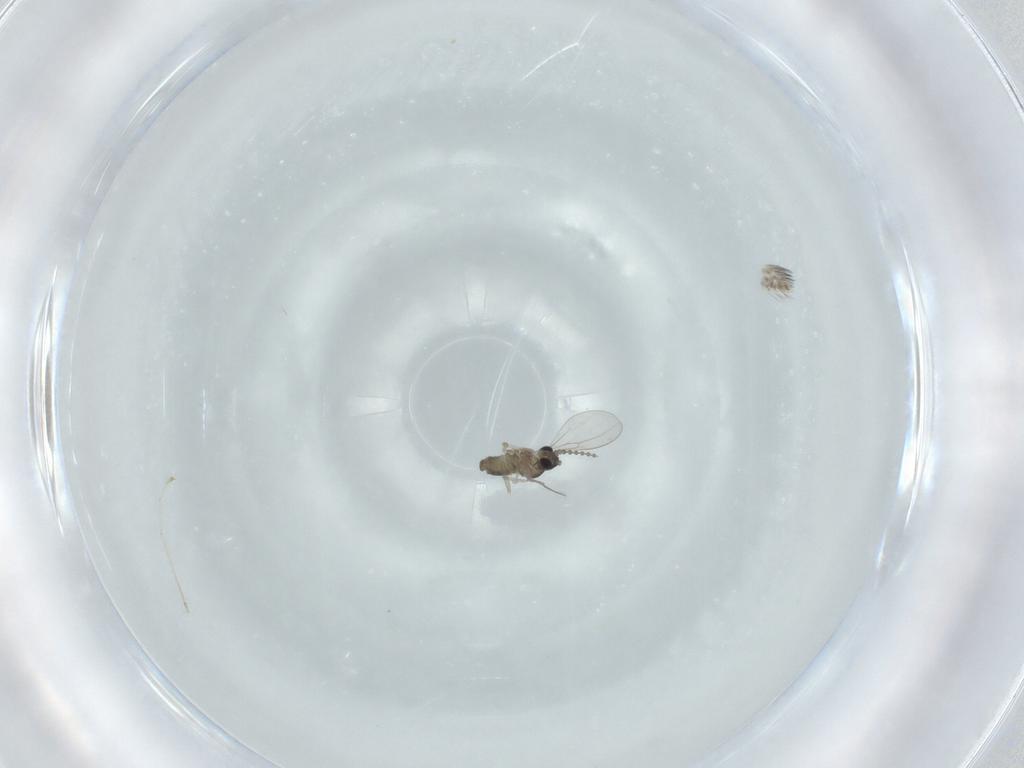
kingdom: Animalia
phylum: Arthropoda
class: Insecta
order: Diptera
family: Cecidomyiidae
